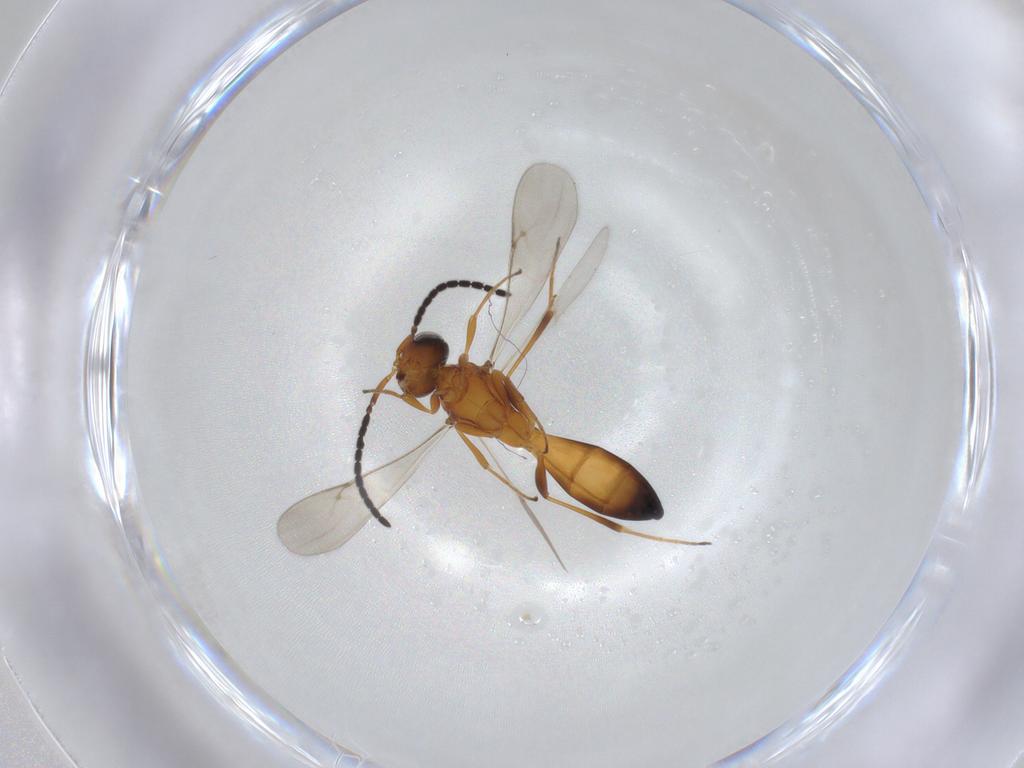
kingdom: Animalia
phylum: Arthropoda
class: Insecta
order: Hymenoptera
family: Scelionidae
